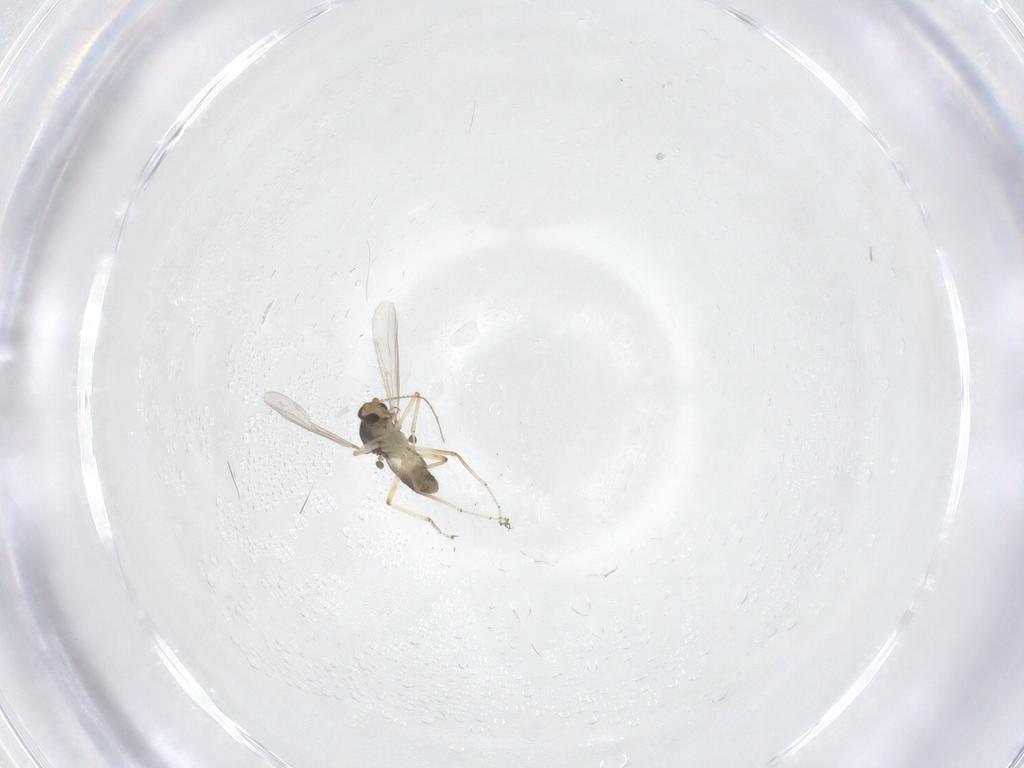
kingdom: Animalia
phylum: Arthropoda
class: Insecta
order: Diptera
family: Ceratopogonidae
